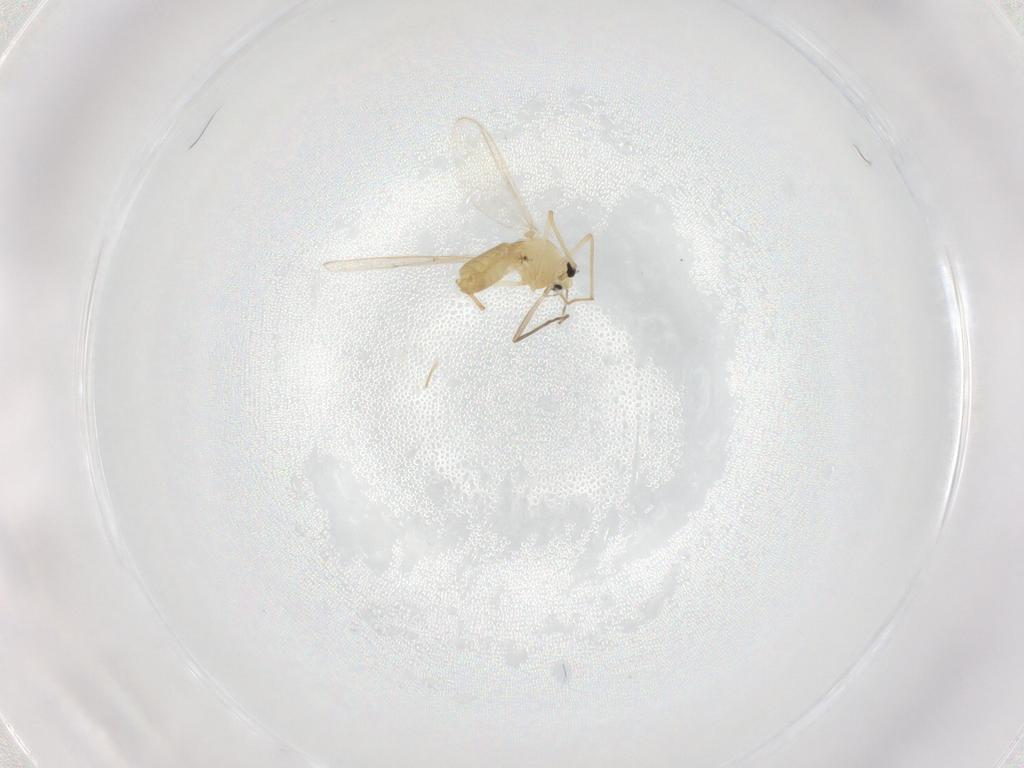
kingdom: Animalia
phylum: Arthropoda
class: Insecta
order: Diptera
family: Chironomidae
